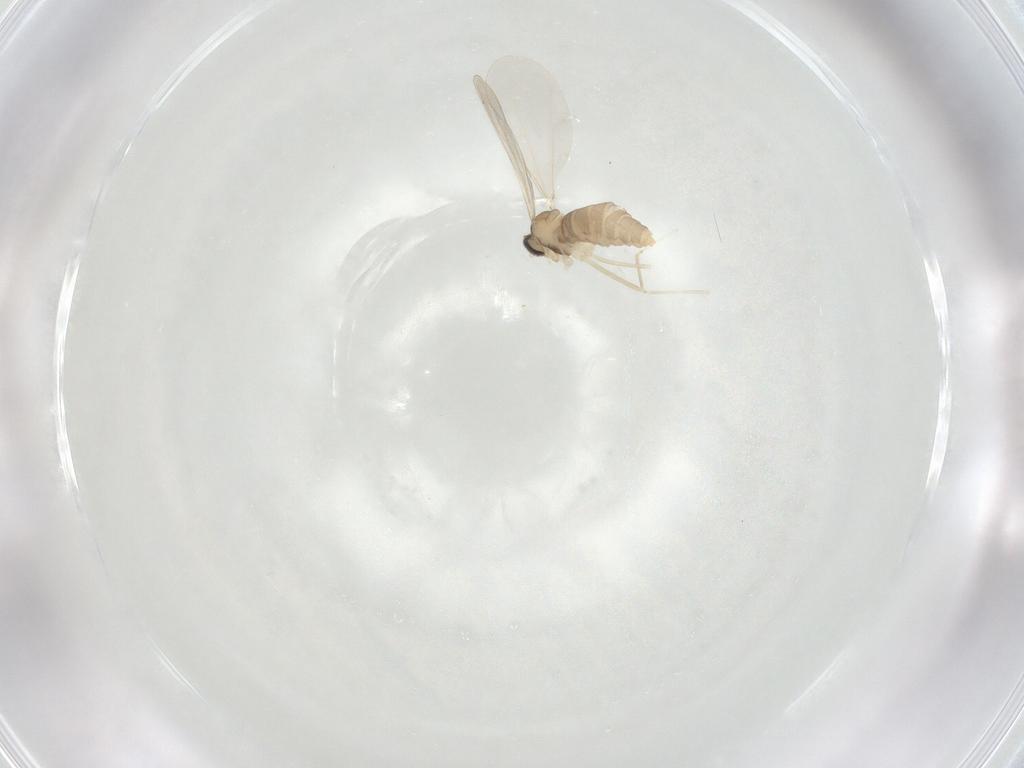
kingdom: Animalia
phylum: Arthropoda
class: Insecta
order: Diptera
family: Cecidomyiidae
